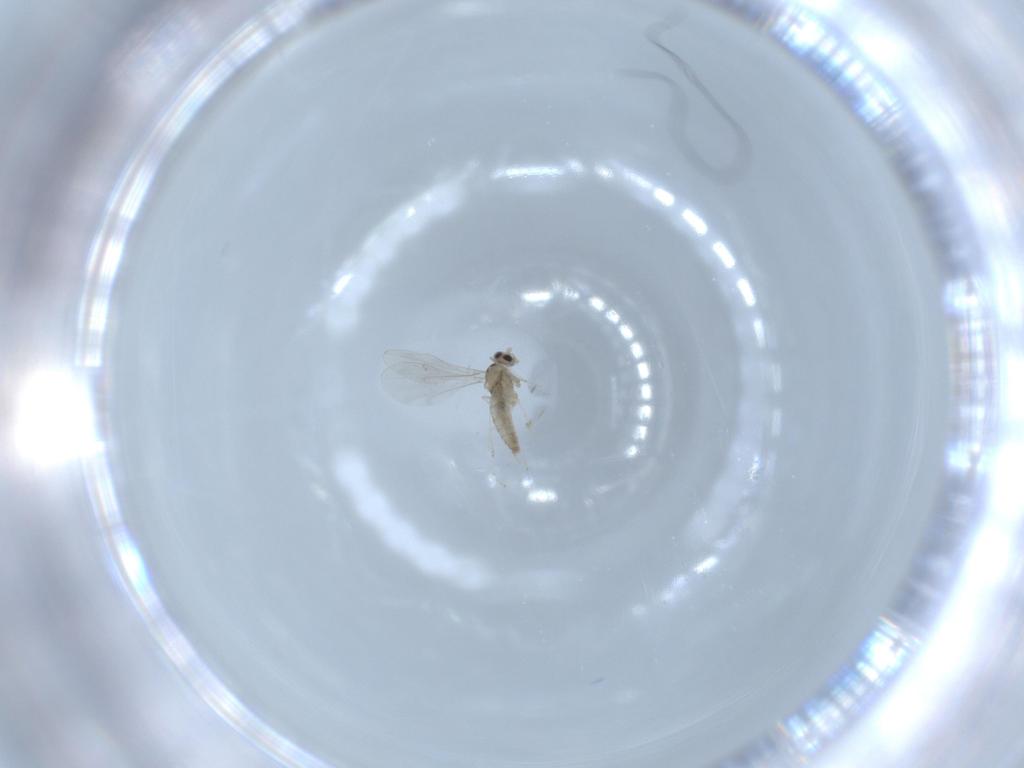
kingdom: Animalia
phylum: Arthropoda
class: Insecta
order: Diptera
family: Cecidomyiidae
